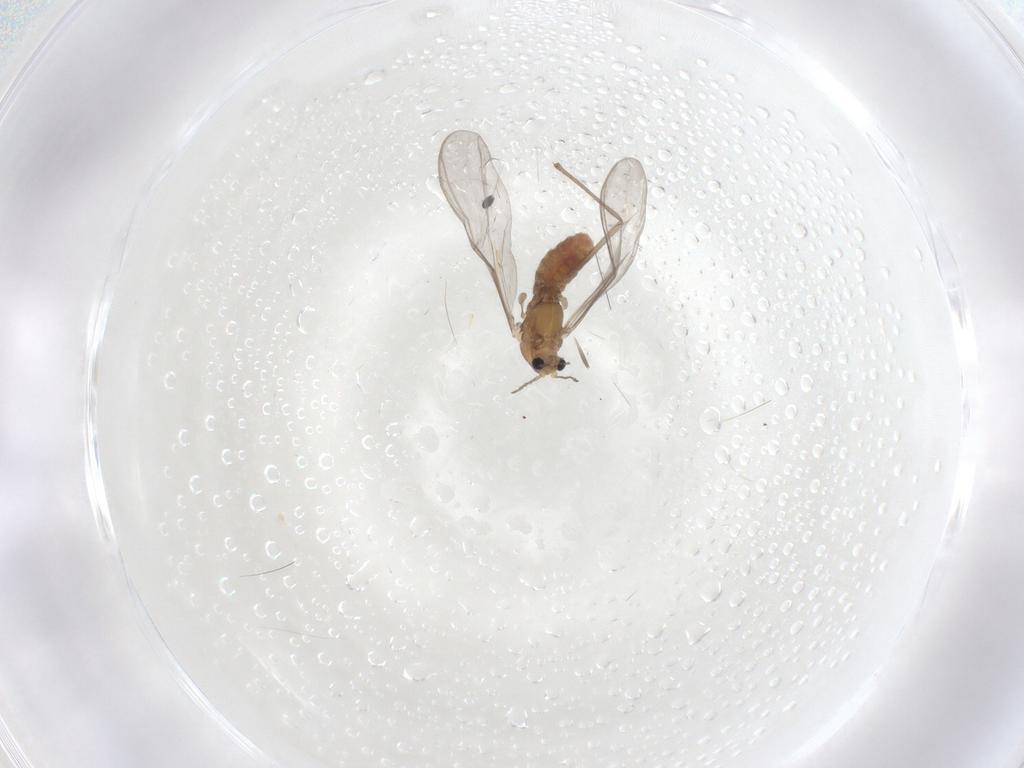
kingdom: Animalia
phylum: Arthropoda
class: Insecta
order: Diptera
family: Chironomidae
